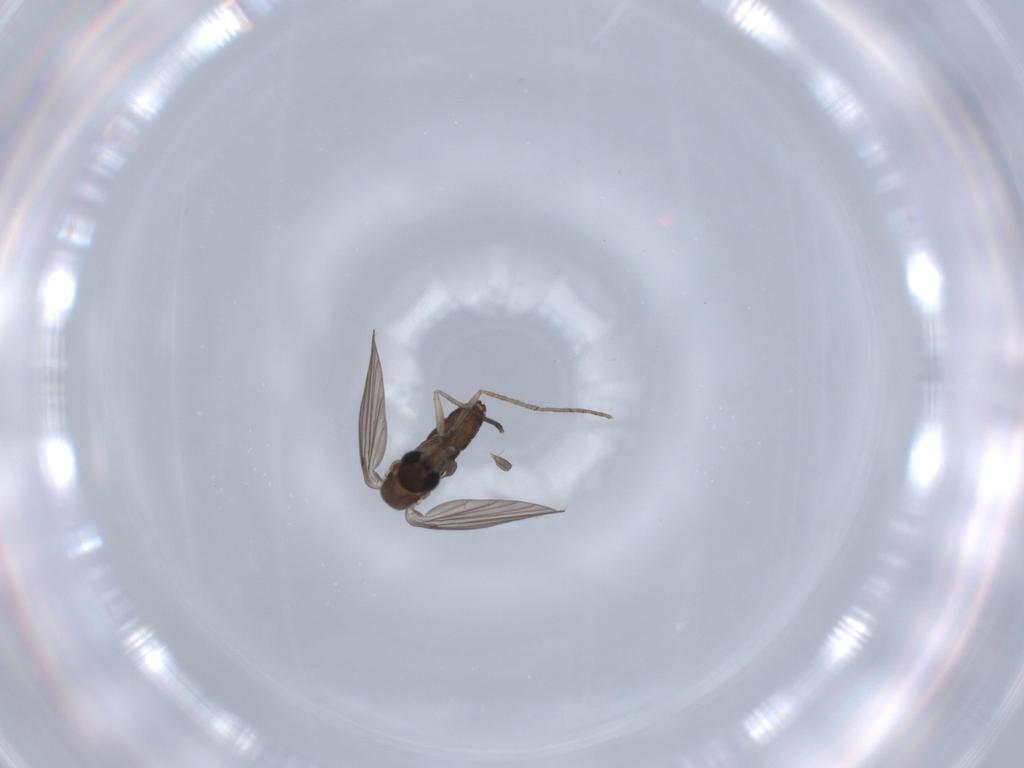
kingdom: Animalia
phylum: Arthropoda
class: Insecta
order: Diptera
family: Psychodidae
